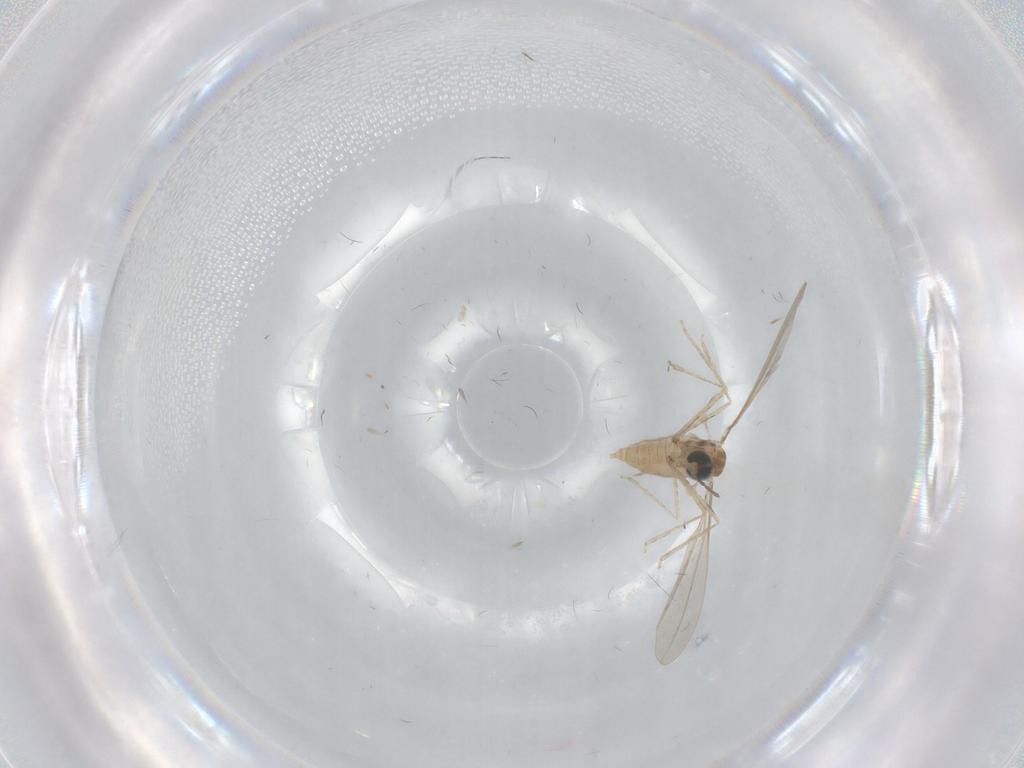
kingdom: Animalia
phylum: Arthropoda
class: Insecta
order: Diptera
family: Cecidomyiidae
